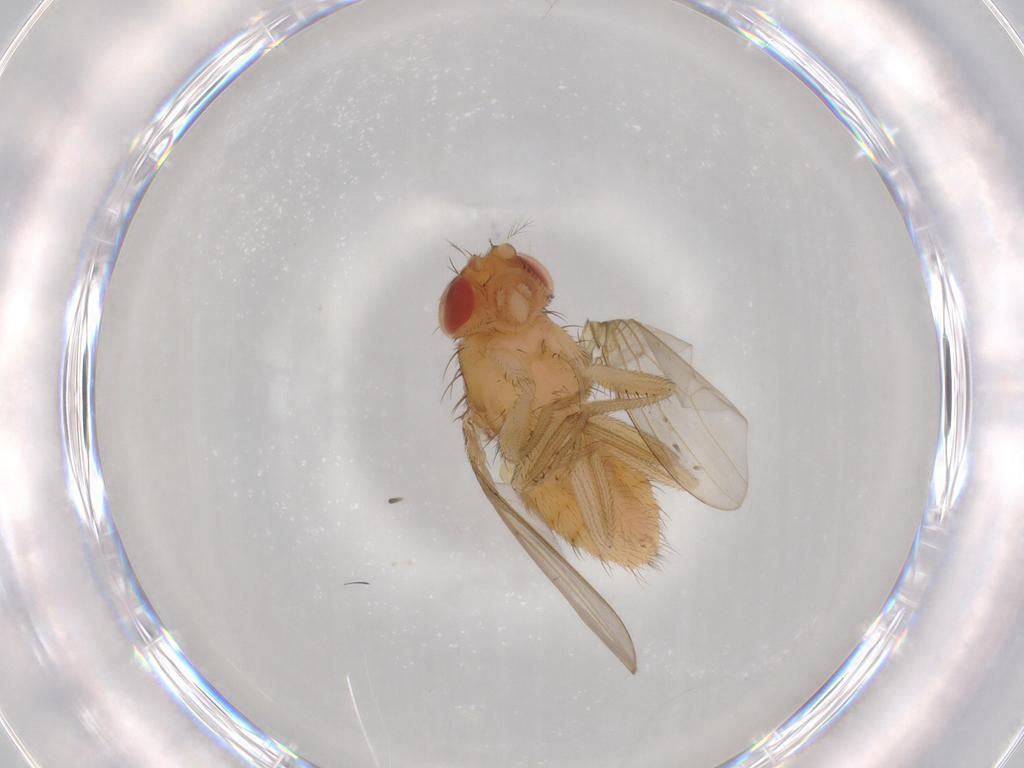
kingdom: Animalia
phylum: Arthropoda
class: Insecta
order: Diptera
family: Drosophilidae
